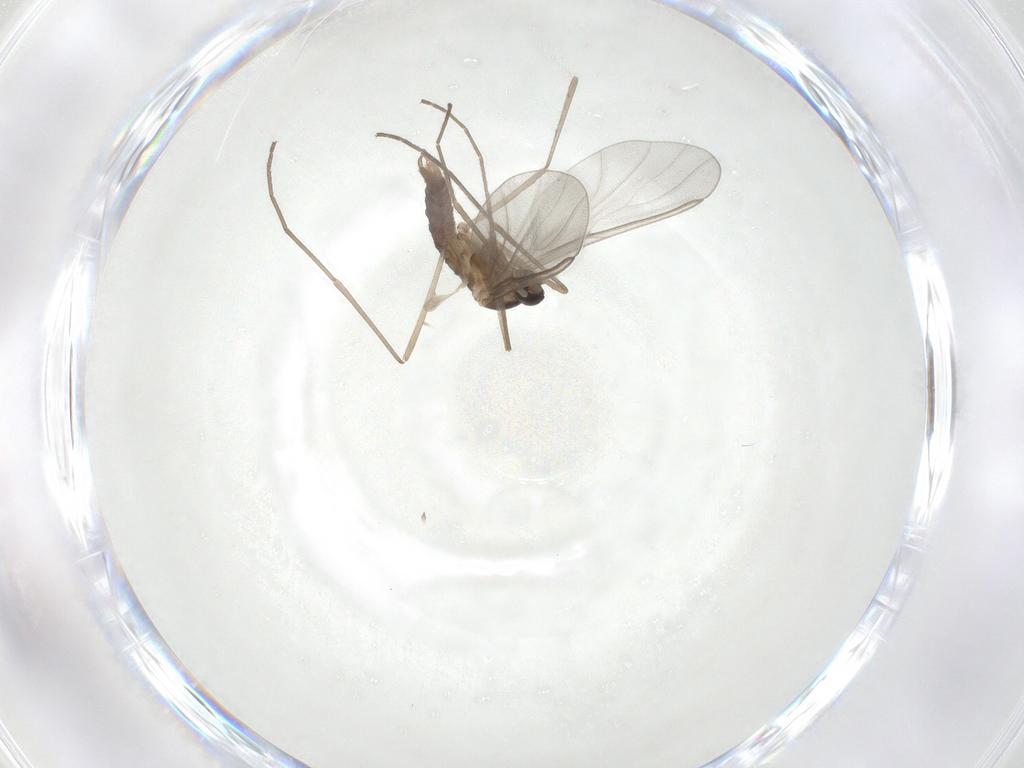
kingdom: Animalia
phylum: Arthropoda
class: Insecta
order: Diptera
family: Cecidomyiidae
